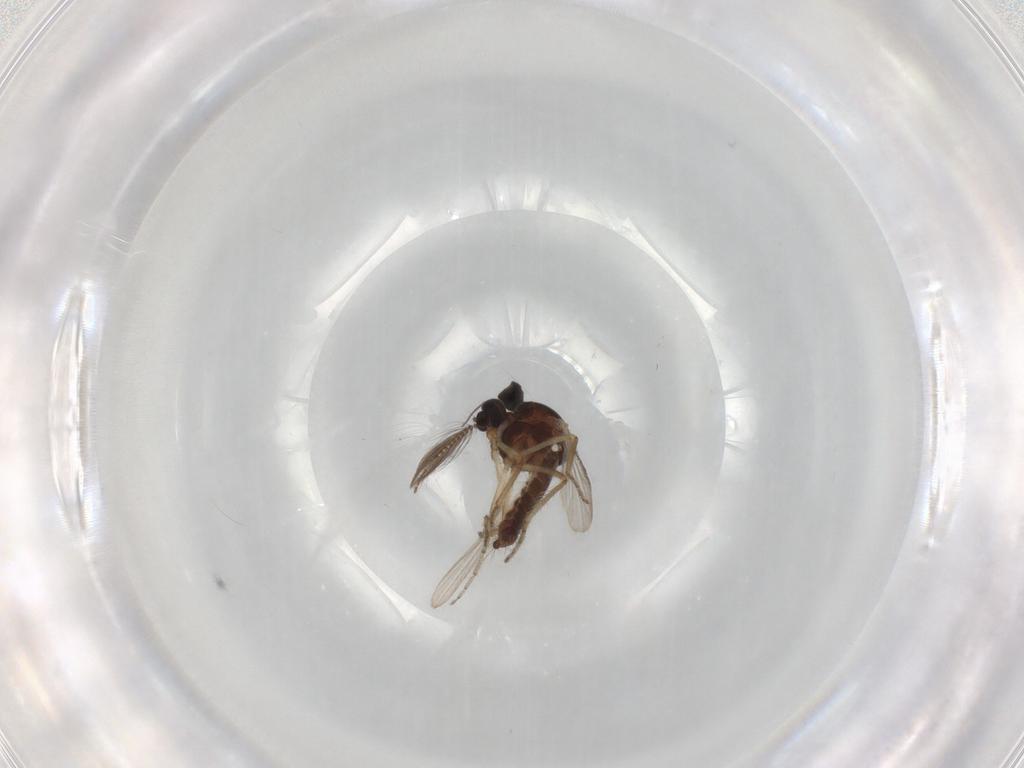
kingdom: Animalia
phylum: Arthropoda
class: Insecta
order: Diptera
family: Ceratopogonidae
